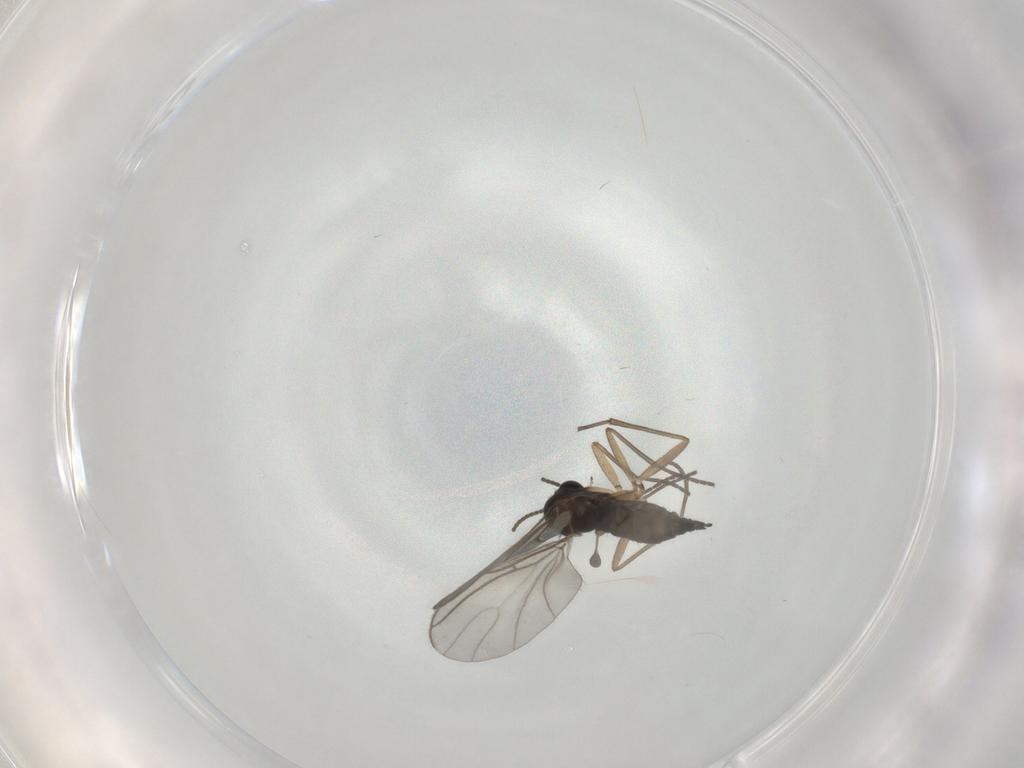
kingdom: Animalia
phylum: Arthropoda
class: Insecta
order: Diptera
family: Sciaridae
